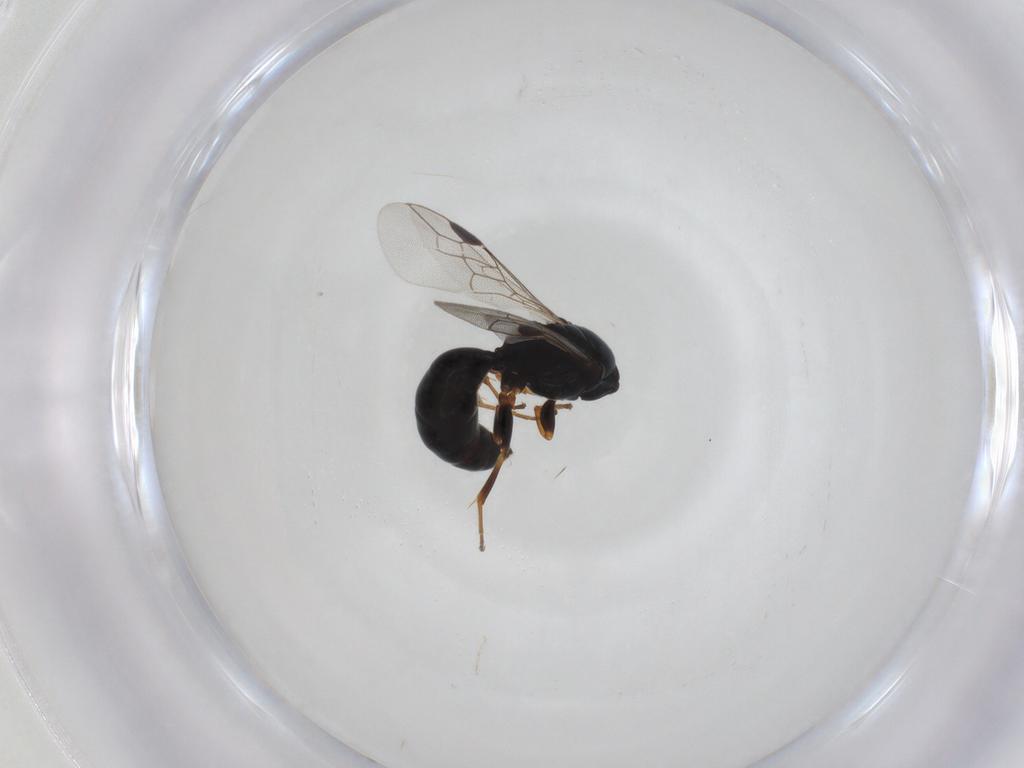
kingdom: Animalia
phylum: Arthropoda
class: Insecta
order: Hymenoptera
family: Pemphredonidae
